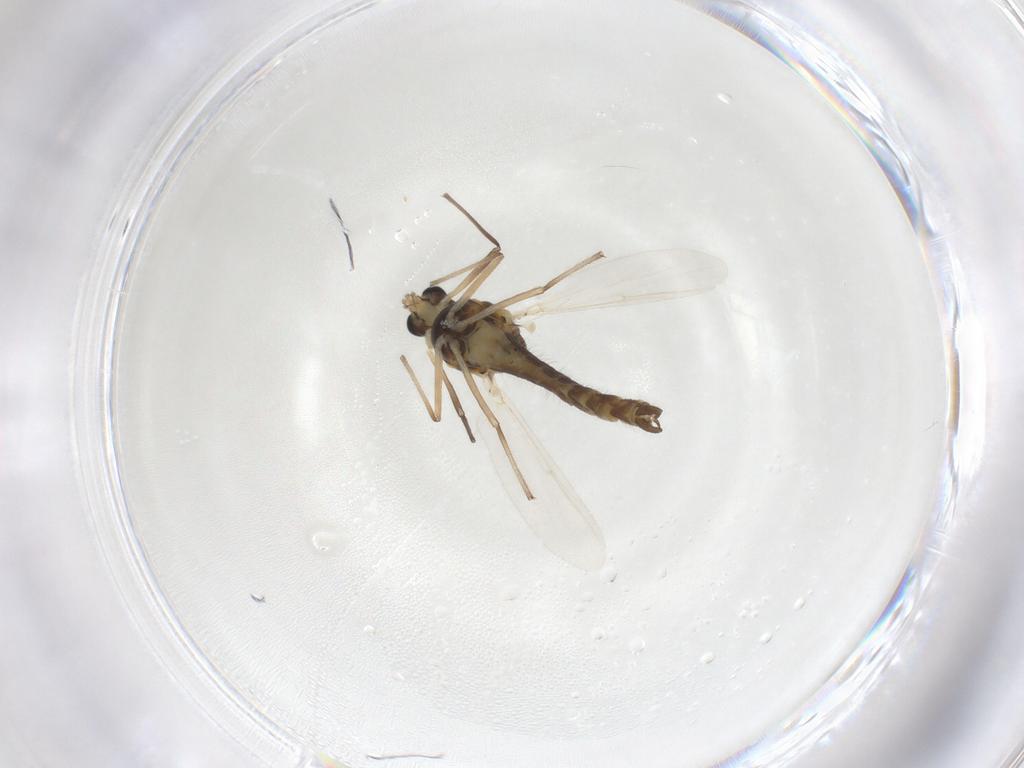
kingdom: Animalia
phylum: Arthropoda
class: Insecta
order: Diptera
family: Chironomidae
